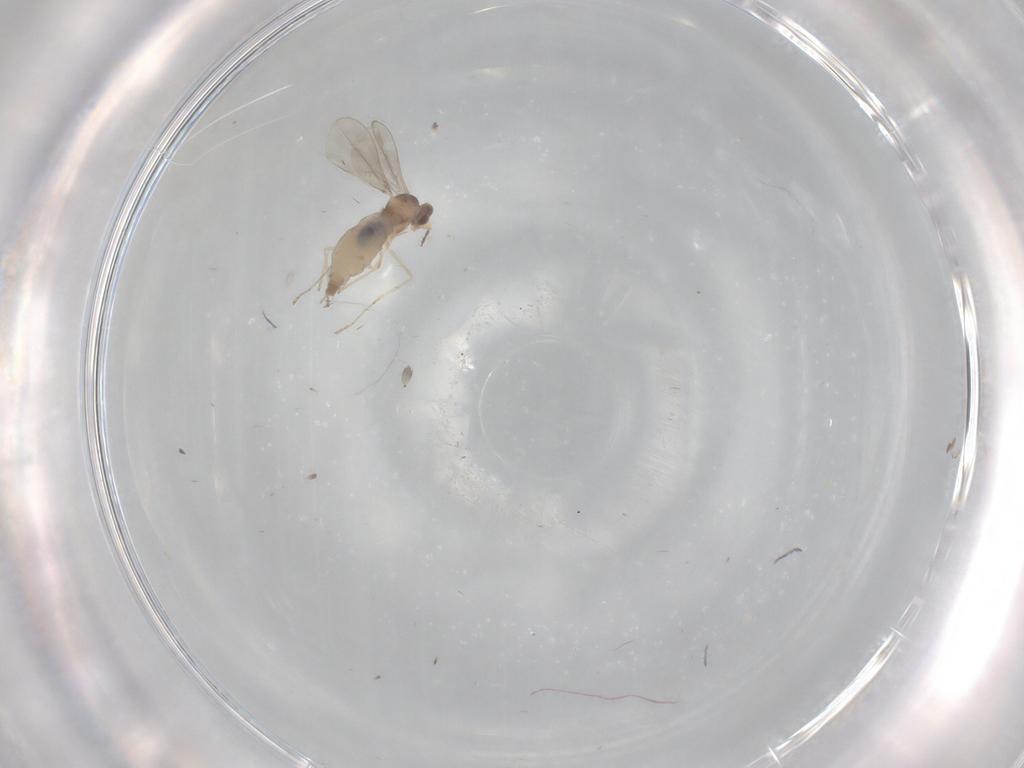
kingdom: Animalia
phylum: Arthropoda
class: Insecta
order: Diptera
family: Cecidomyiidae
